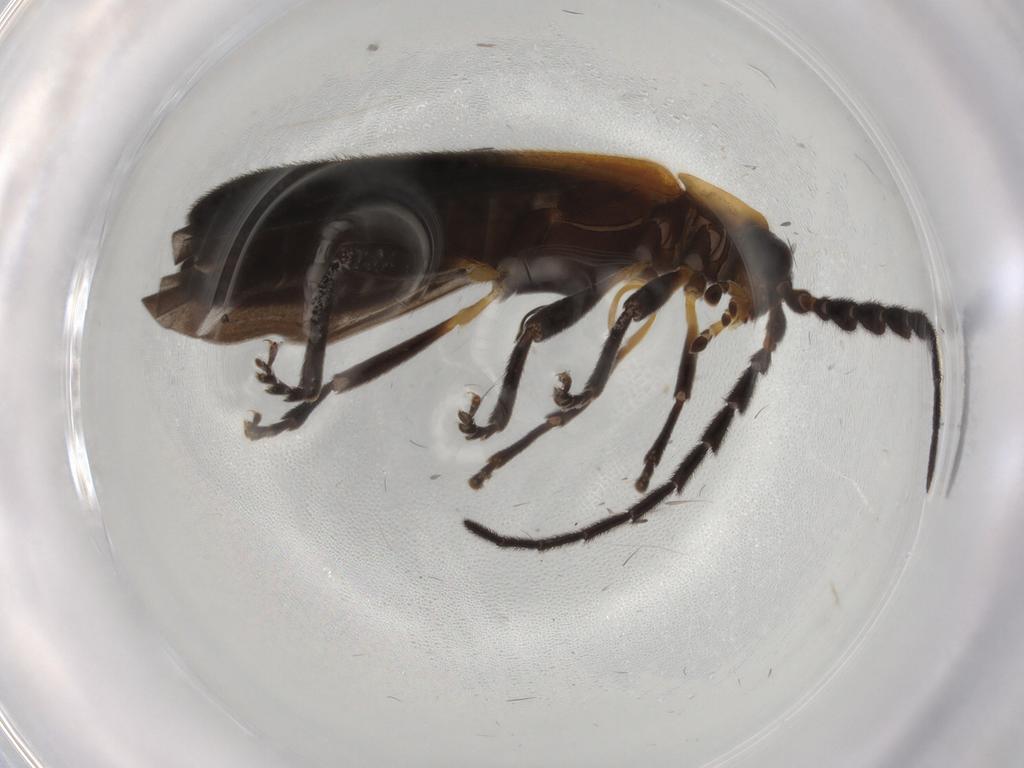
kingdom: Animalia
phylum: Arthropoda
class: Insecta
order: Coleoptera
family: Lycidae
